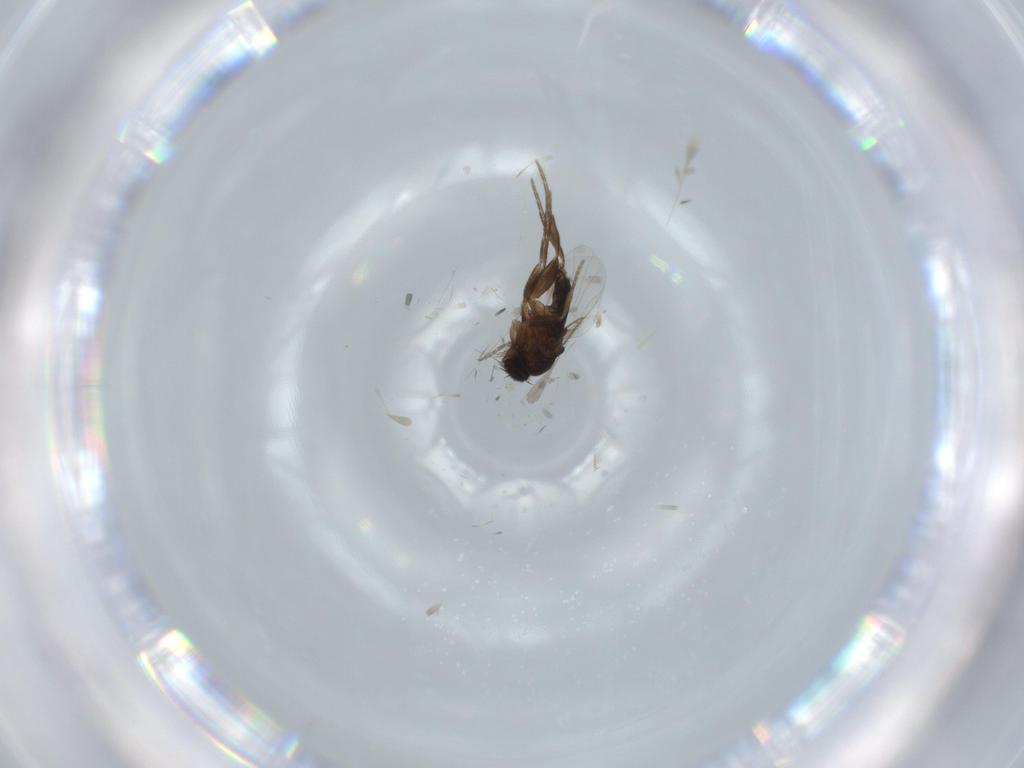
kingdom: Animalia
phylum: Arthropoda
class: Insecta
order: Diptera
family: Phoridae
